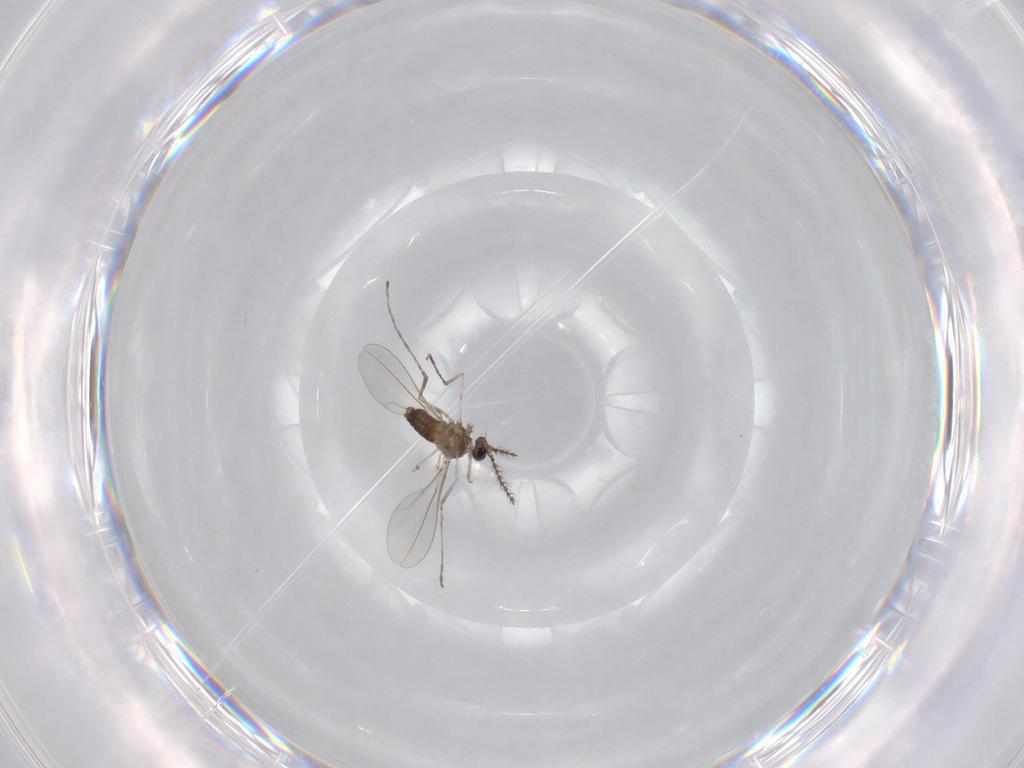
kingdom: Animalia
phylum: Arthropoda
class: Insecta
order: Diptera
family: Cecidomyiidae
